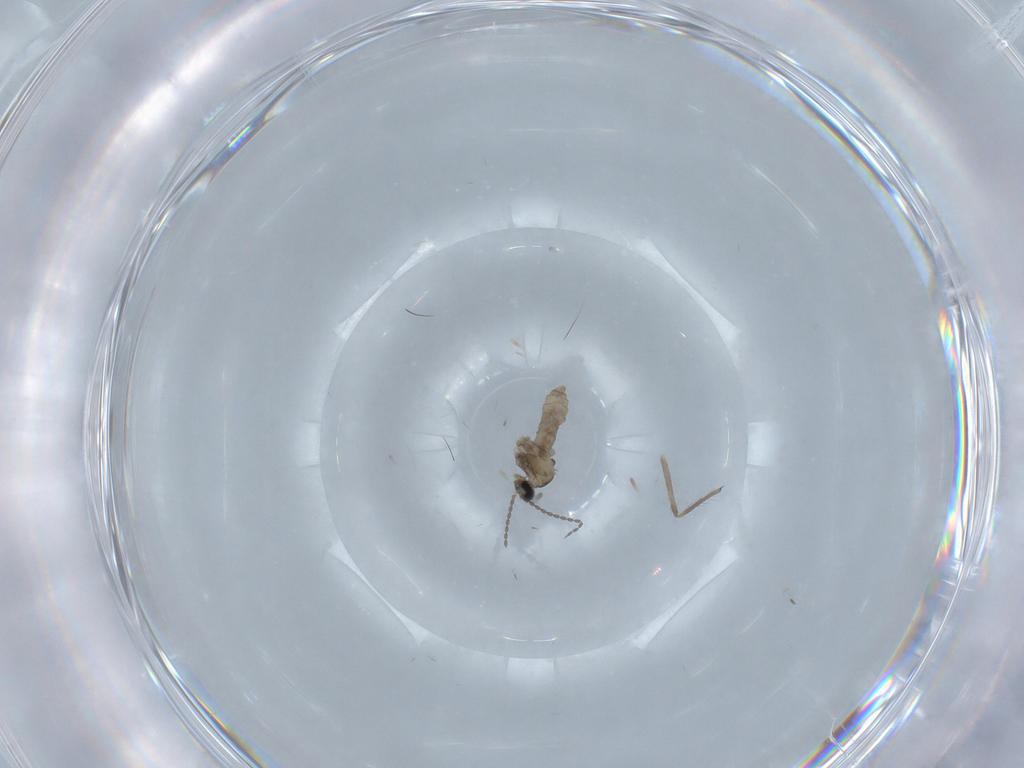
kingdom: Animalia
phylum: Arthropoda
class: Insecta
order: Diptera
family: Cecidomyiidae
